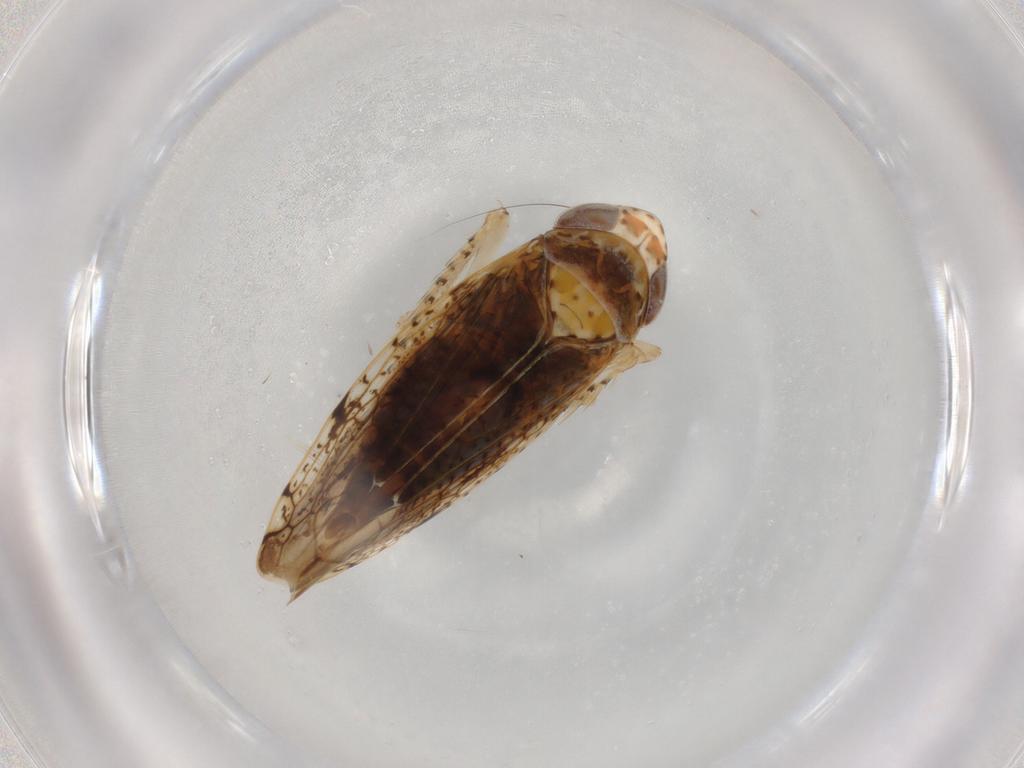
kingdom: Animalia
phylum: Arthropoda
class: Insecta
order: Hemiptera
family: Cicadellidae
